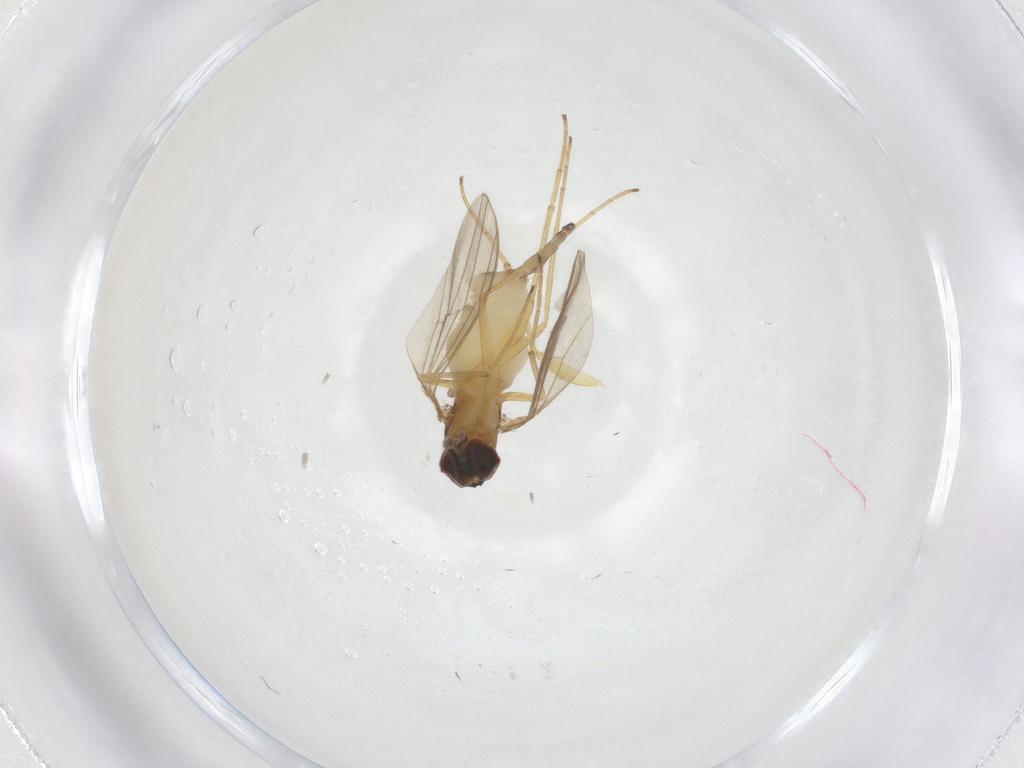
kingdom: Animalia
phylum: Arthropoda
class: Insecta
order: Diptera
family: Dolichopodidae
